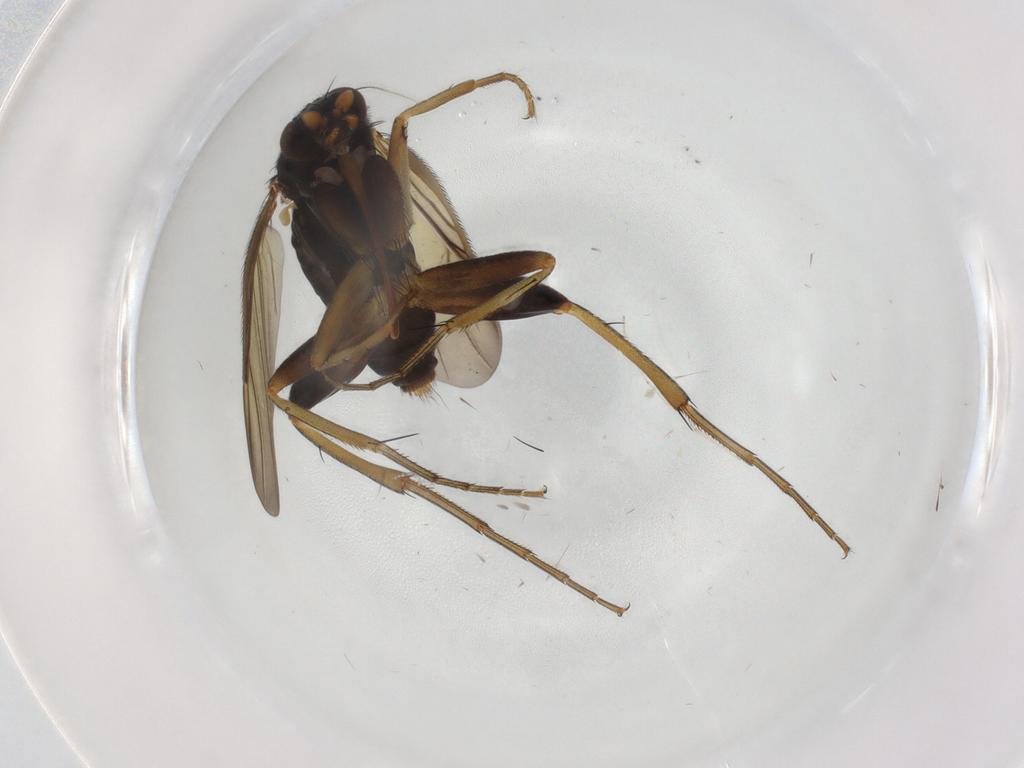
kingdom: Animalia
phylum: Arthropoda
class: Insecta
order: Diptera
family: Phoridae
